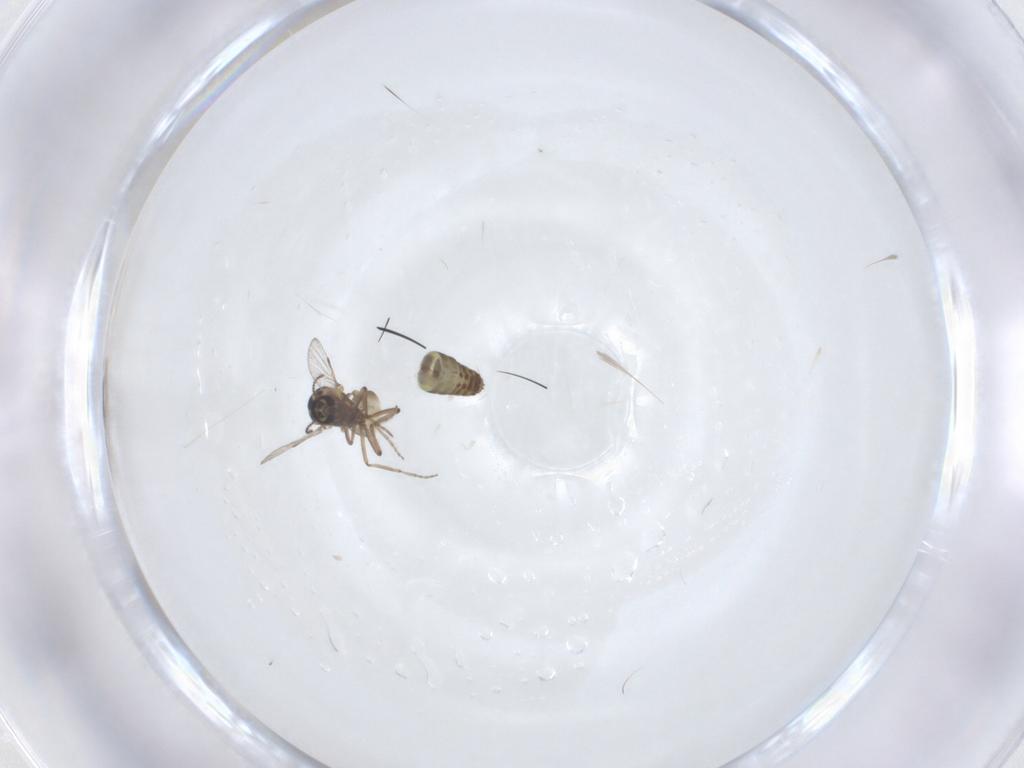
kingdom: Animalia
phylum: Arthropoda
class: Insecta
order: Diptera
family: Ceratopogonidae
